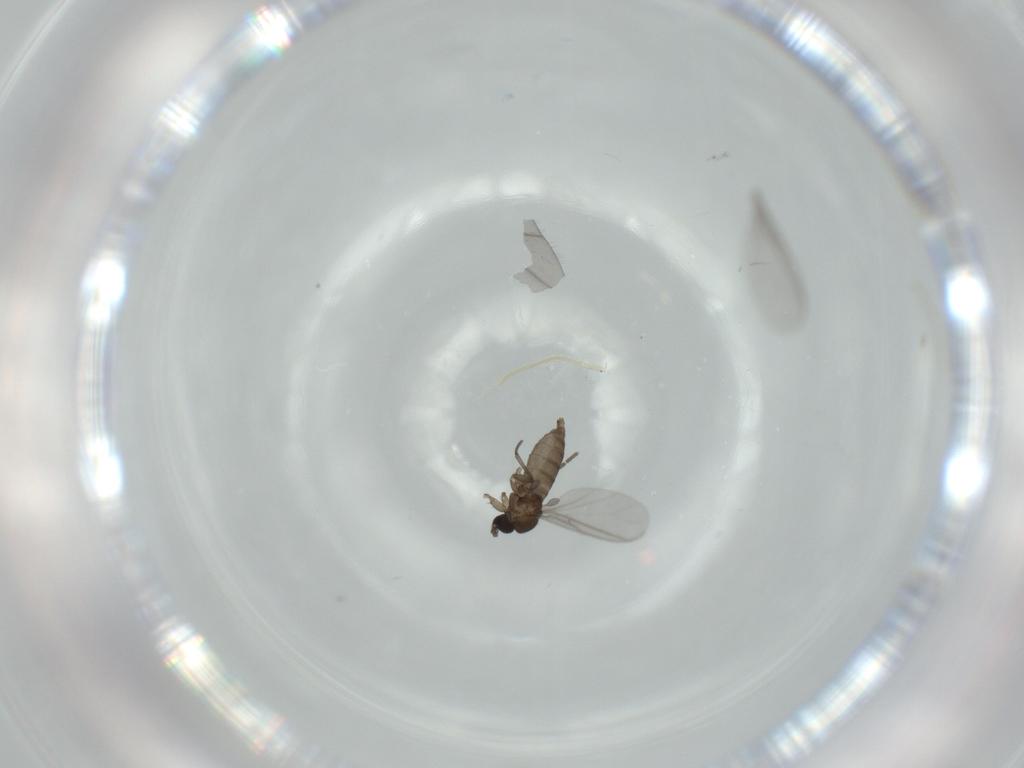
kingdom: Animalia
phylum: Arthropoda
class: Insecta
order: Diptera
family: Sciaridae
